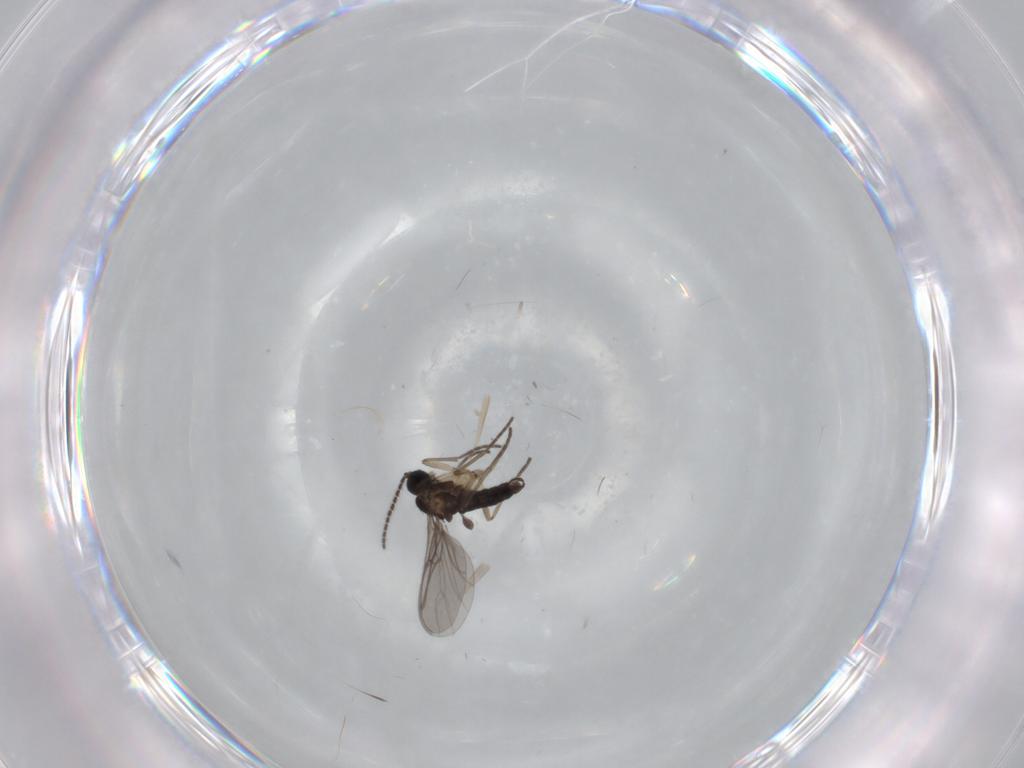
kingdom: Animalia
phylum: Arthropoda
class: Insecta
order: Diptera
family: Sciaridae
